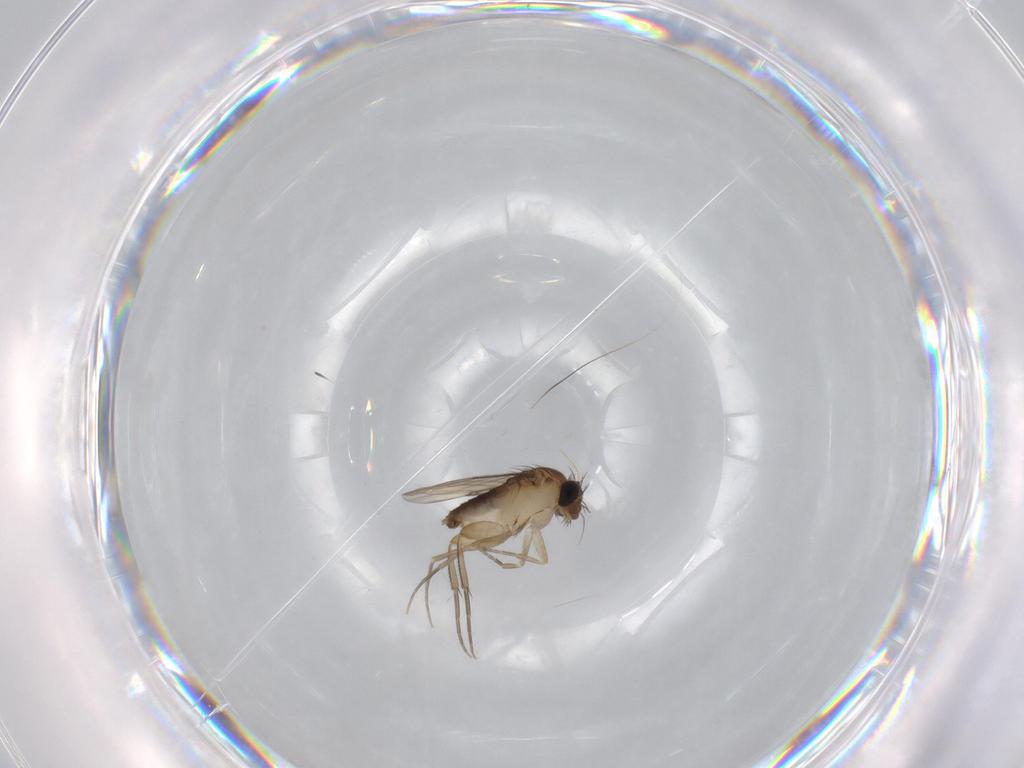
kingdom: Animalia
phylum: Arthropoda
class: Insecta
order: Diptera
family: Phoridae
